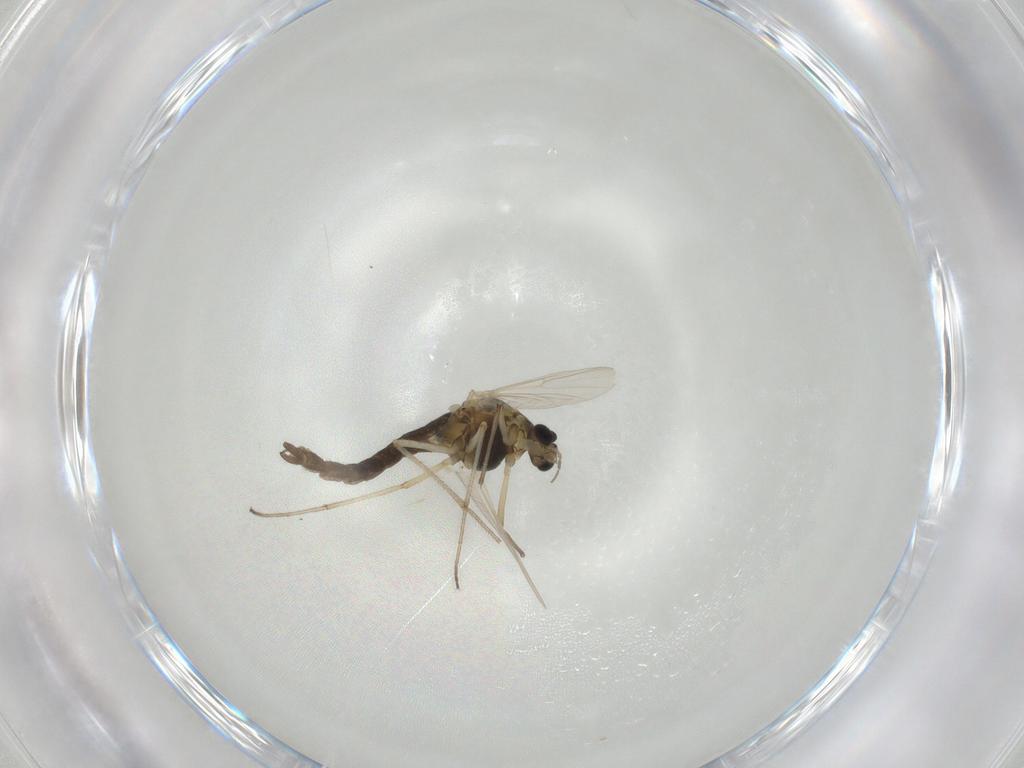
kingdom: Animalia
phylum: Arthropoda
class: Insecta
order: Diptera
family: Chironomidae
